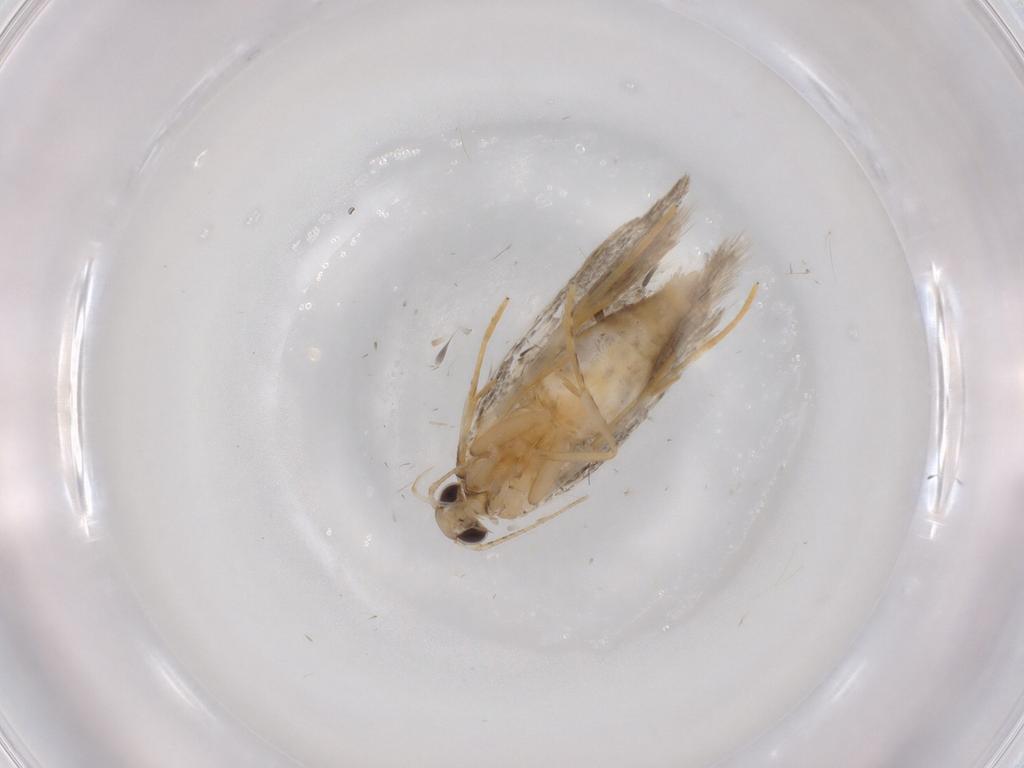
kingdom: Animalia
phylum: Arthropoda
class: Insecta
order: Lepidoptera
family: Autostichidae
